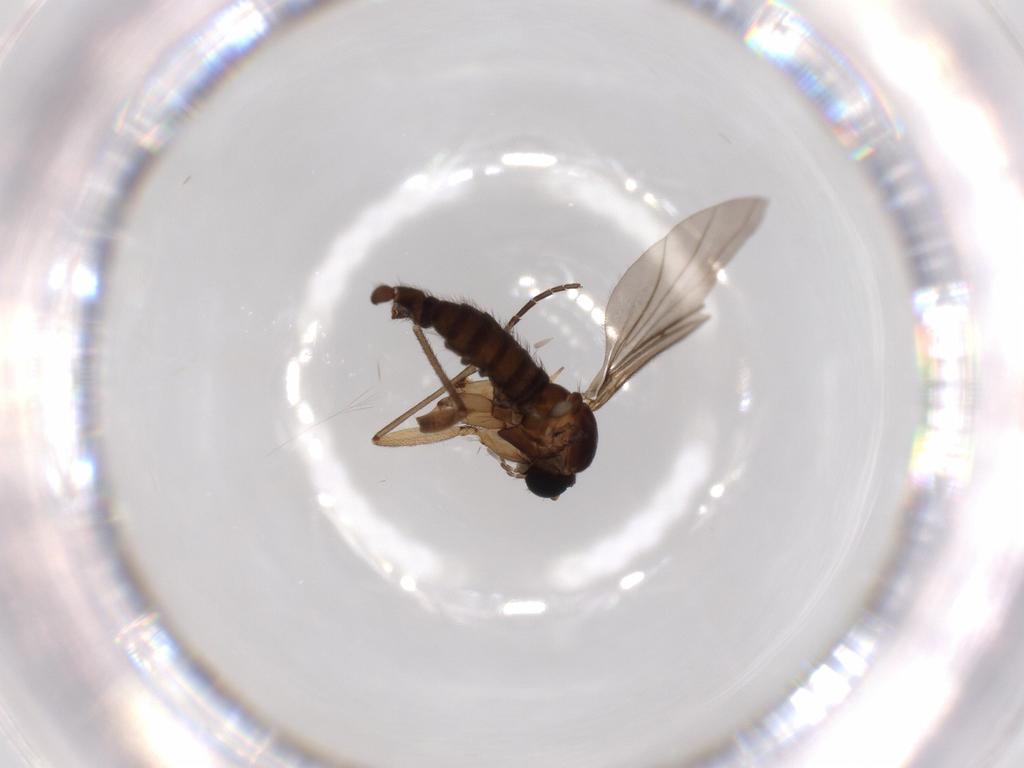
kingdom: Animalia
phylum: Arthropoda
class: Insecta
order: Diptera
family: Sciaridae
